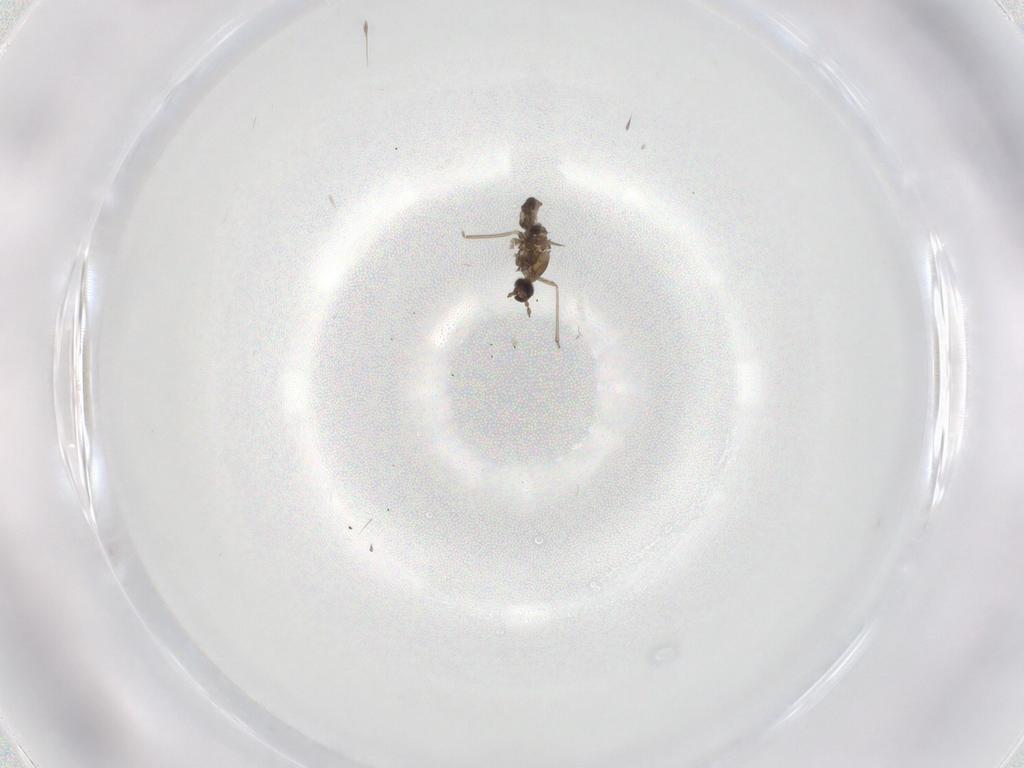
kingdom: Animalia
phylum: Arthropoda
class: Insecta
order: Diptera
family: Cecidomyiidae
